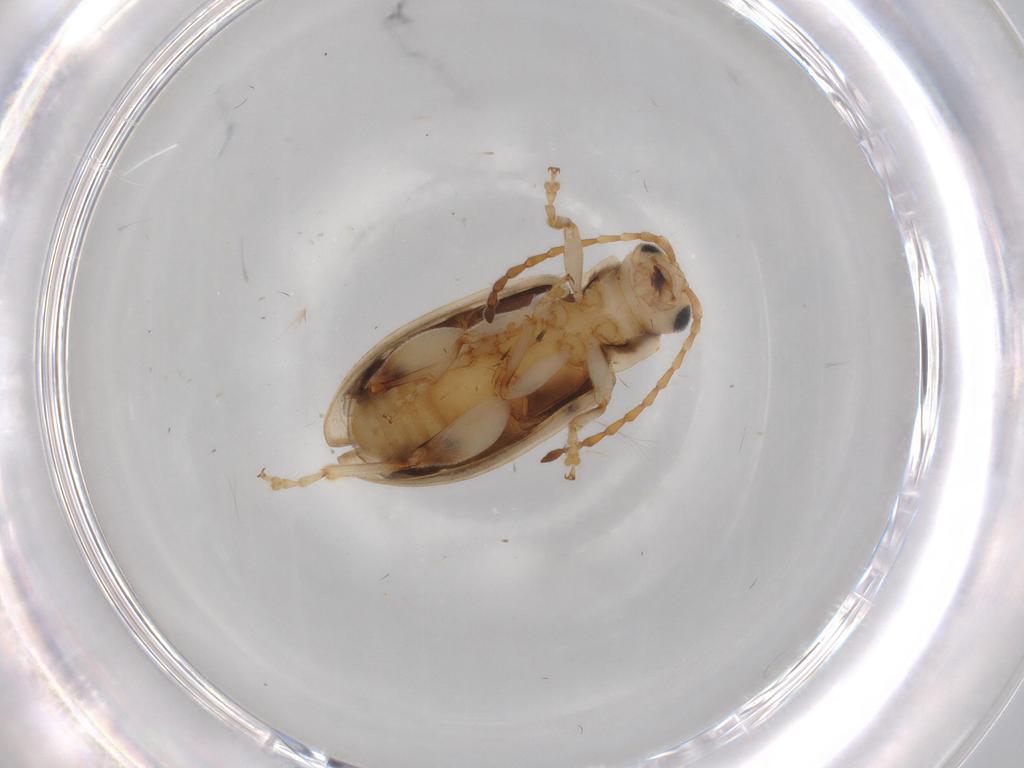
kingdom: Animalia
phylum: Arthropoda
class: Insecta
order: Coleoptera
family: Chrysomelidae
